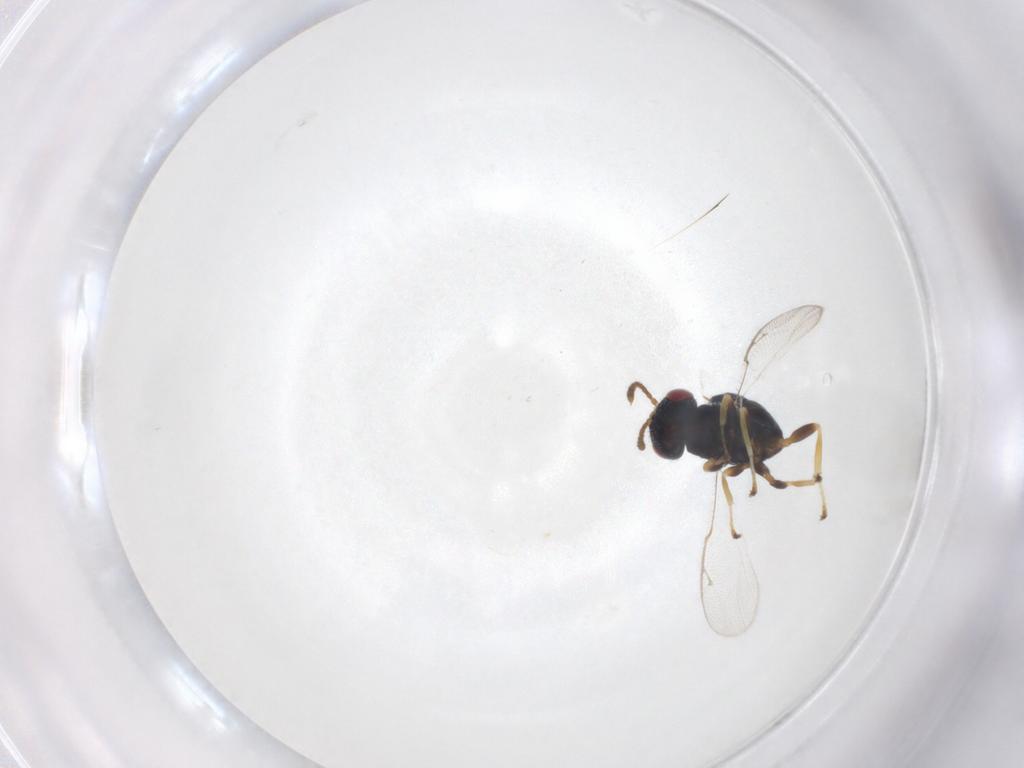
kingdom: Animalia
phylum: Arthropoda
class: Insecta
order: Hymenoptera
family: Pteromalidae
